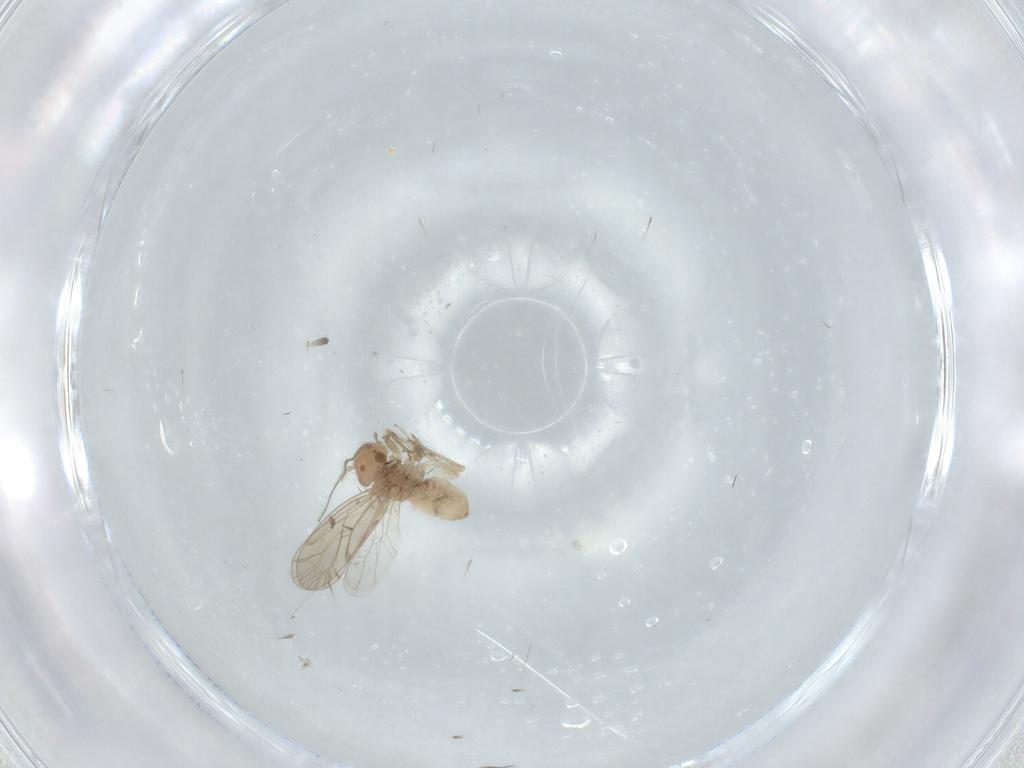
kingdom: Animalia
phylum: Arthropoda
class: Insecta
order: Psocodea
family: Ectopsocidae
